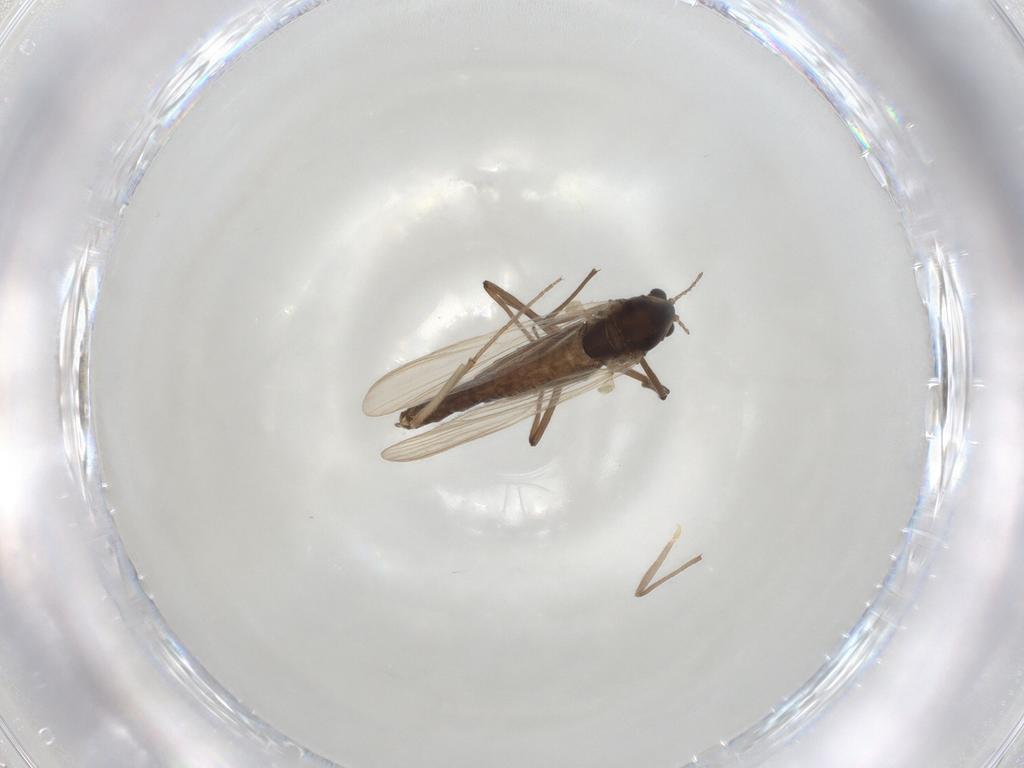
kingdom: Animalia
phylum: Arthropoda
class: Insecta
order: Diptera
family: Chironomidae
